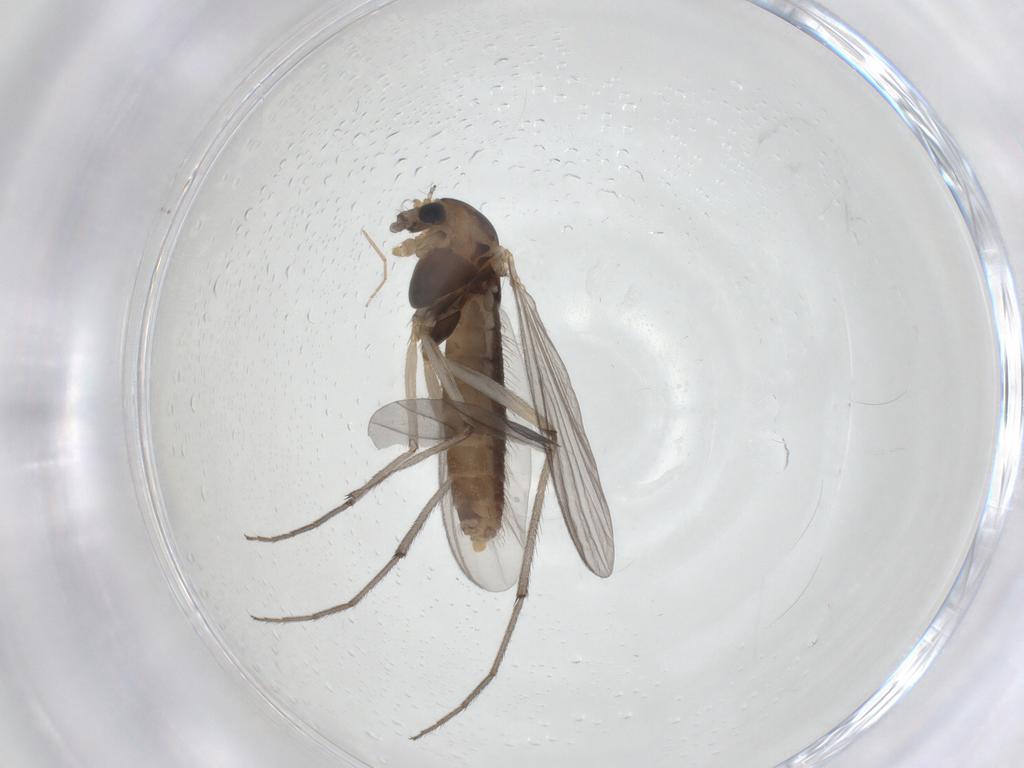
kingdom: Animalia
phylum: Arthropoda
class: Insecta
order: Diptera
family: Chironomidae
